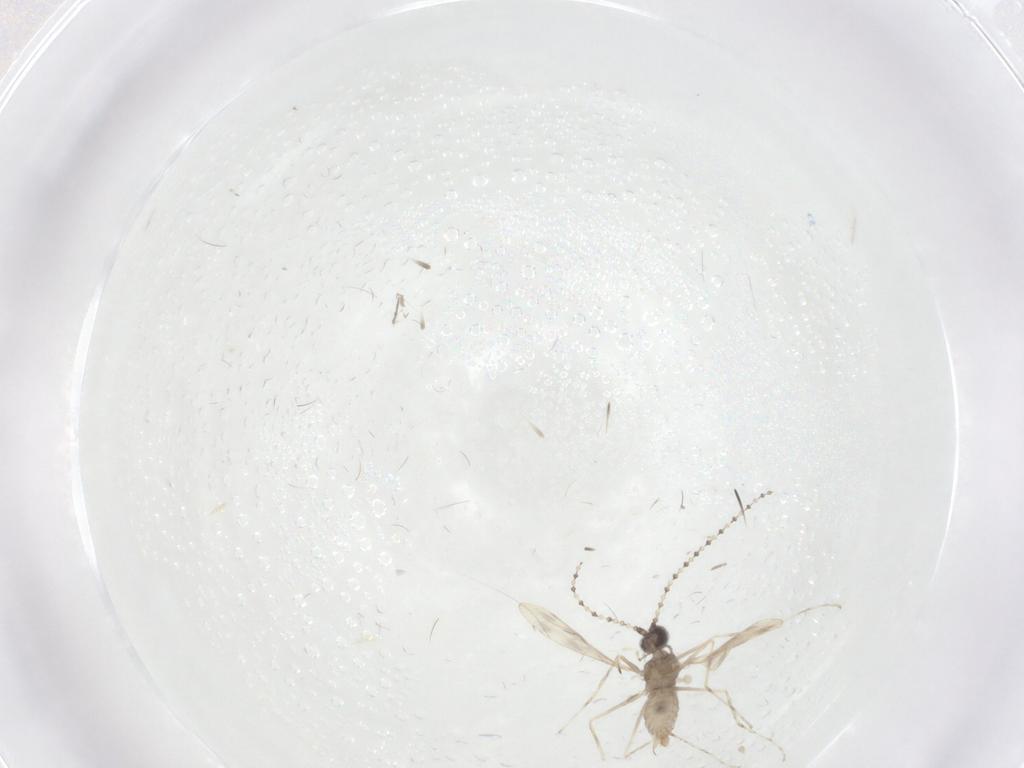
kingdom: Animalia
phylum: Arthropoda
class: Insecta
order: Diptera
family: Cecidomyiidae
